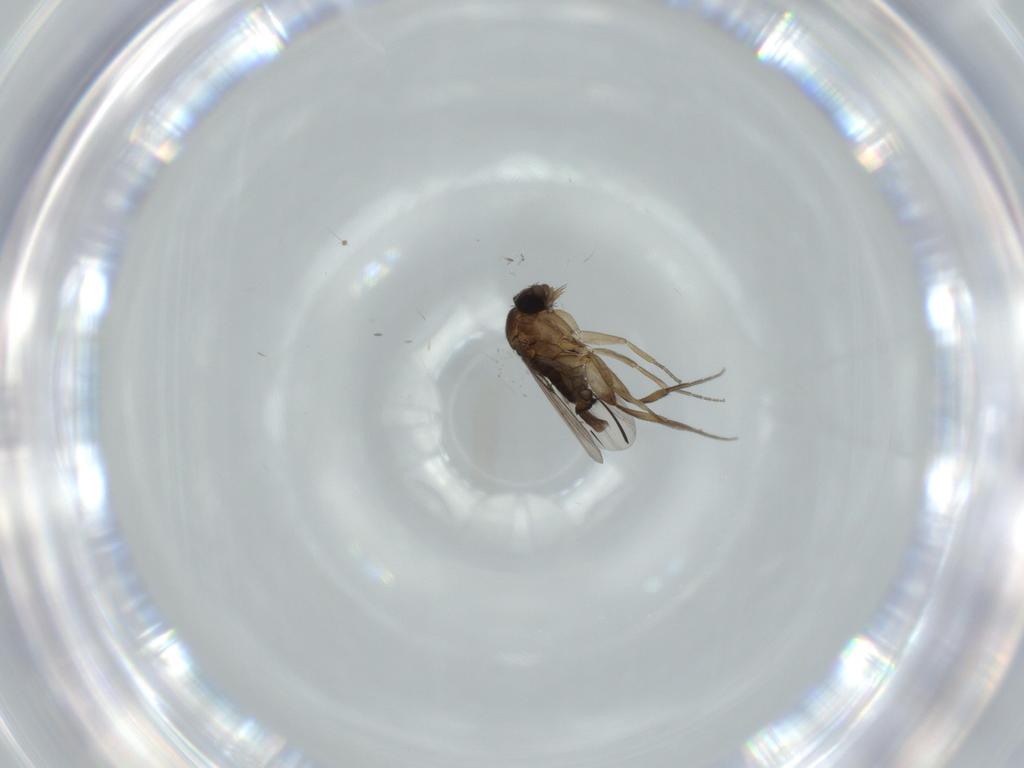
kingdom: Animalia
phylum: Arthropoda
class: Insecta
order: Diptera
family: Phoridae
